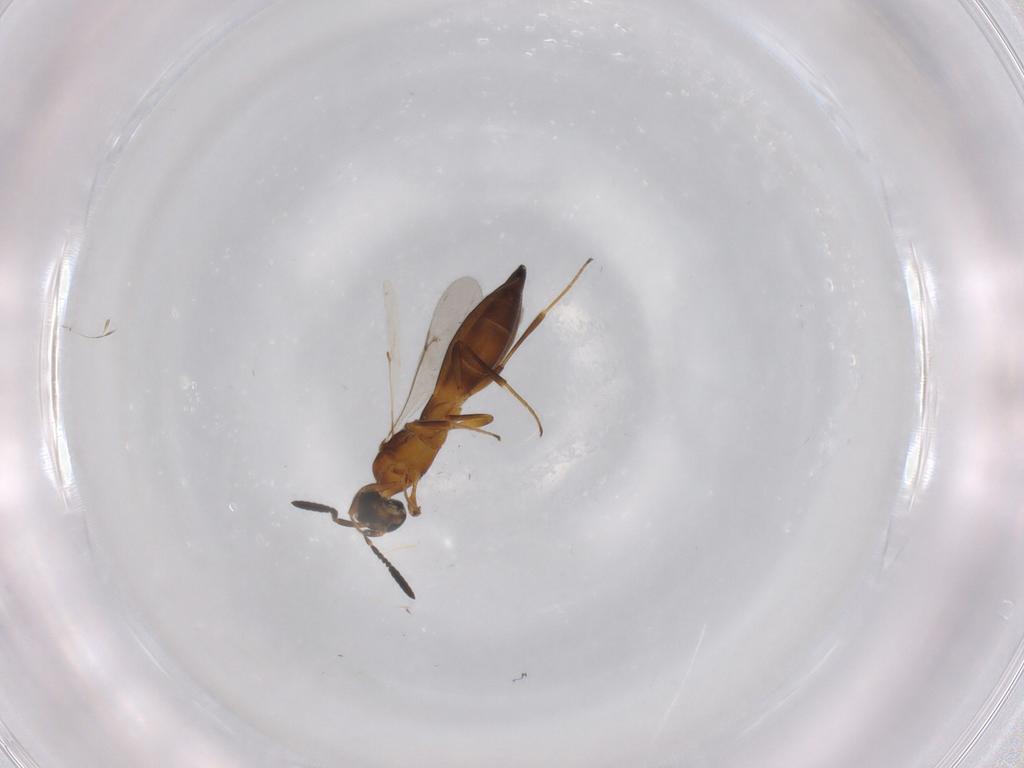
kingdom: Animalia
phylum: Arthropoda
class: Insecta
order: Hymenoptera
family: Scelionidae
